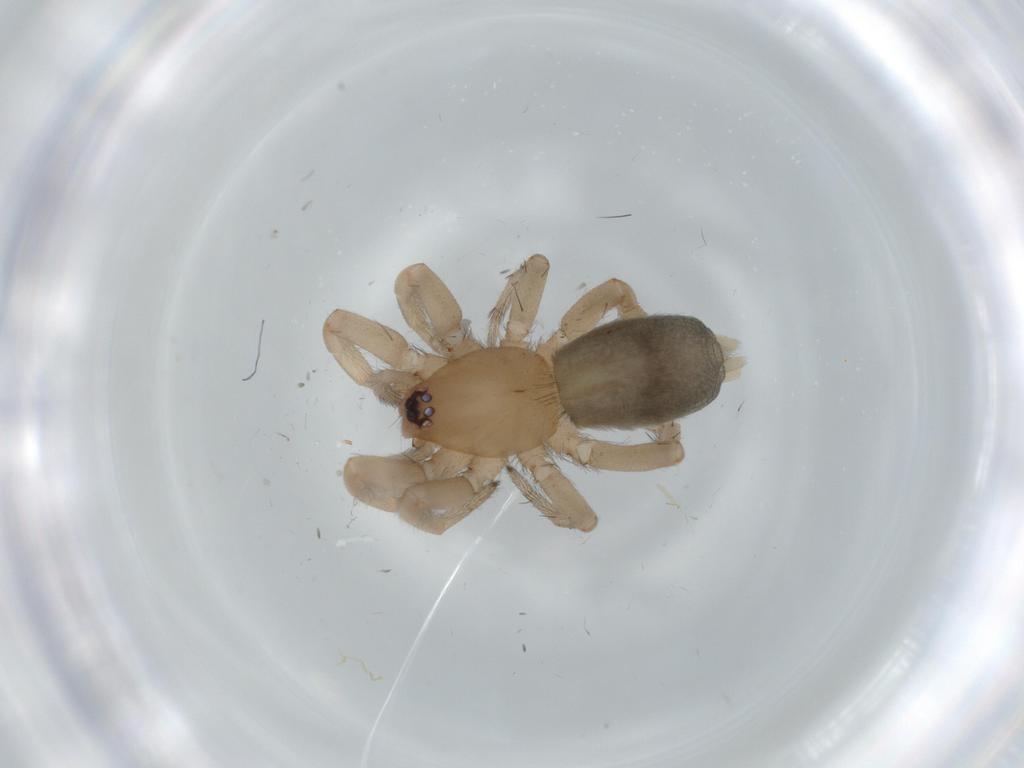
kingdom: Animalia
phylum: Arthropoda
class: Arachnida
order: Araneae
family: Gnaphosidae
